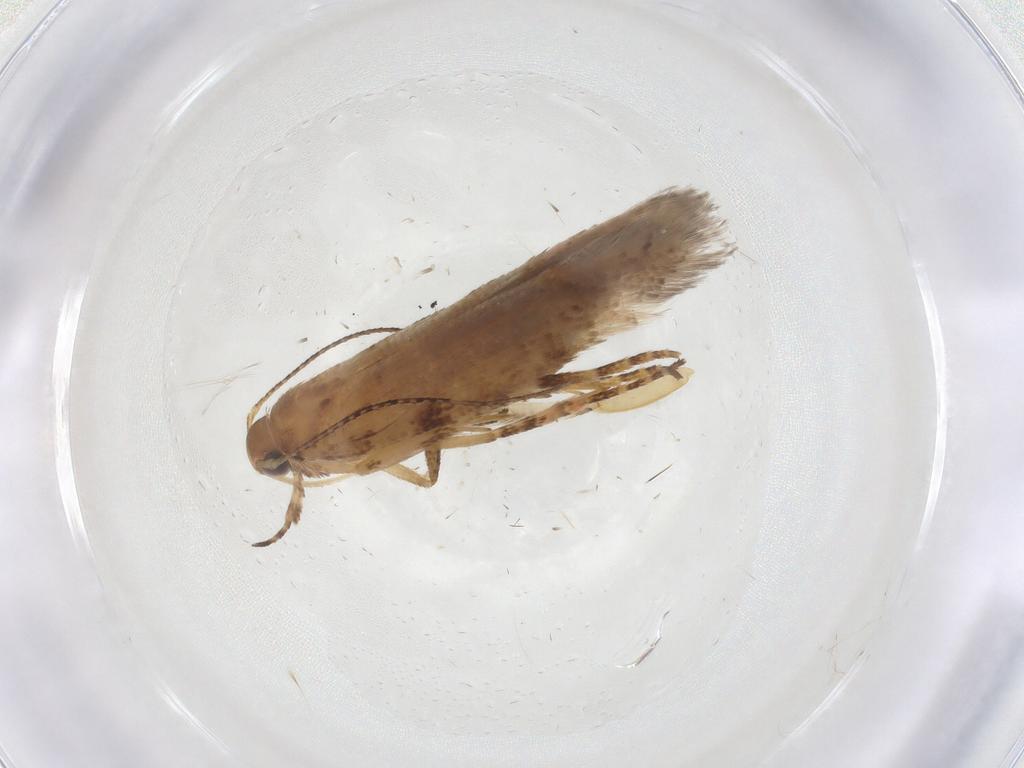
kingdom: Animalia
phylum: Arthropoda
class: Insecta
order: Lepidoptera
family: Gelechiidae
